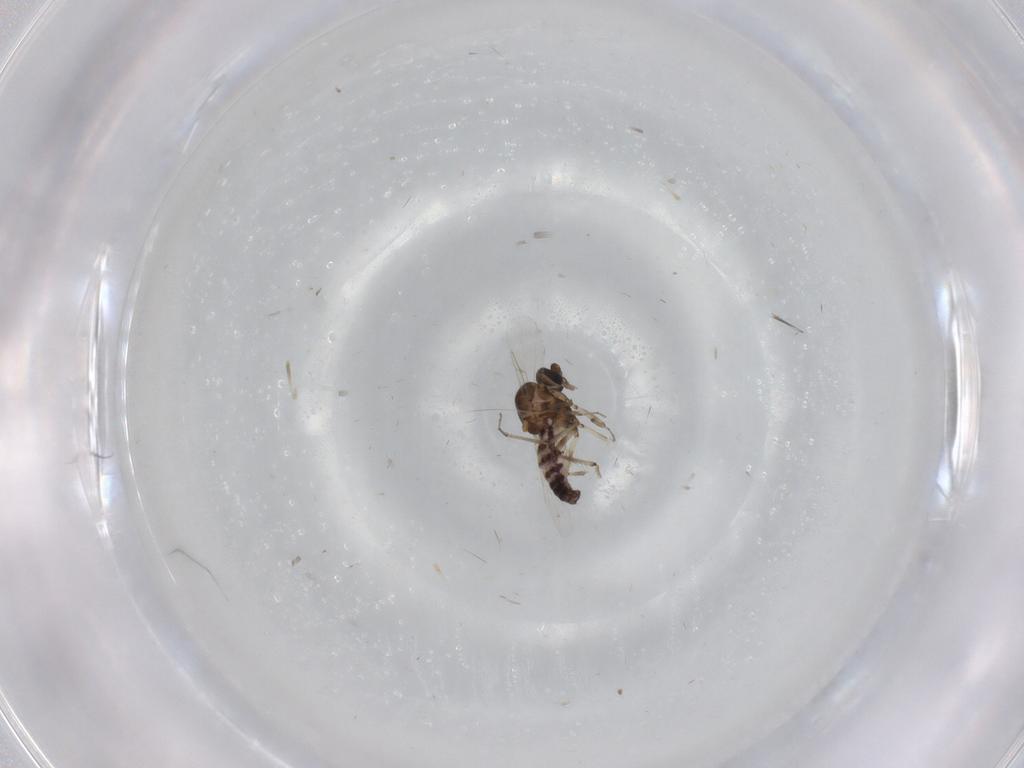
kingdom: Animalia
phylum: Arthropoda
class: Insecta
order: Diptera
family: Ceratopogonidae
